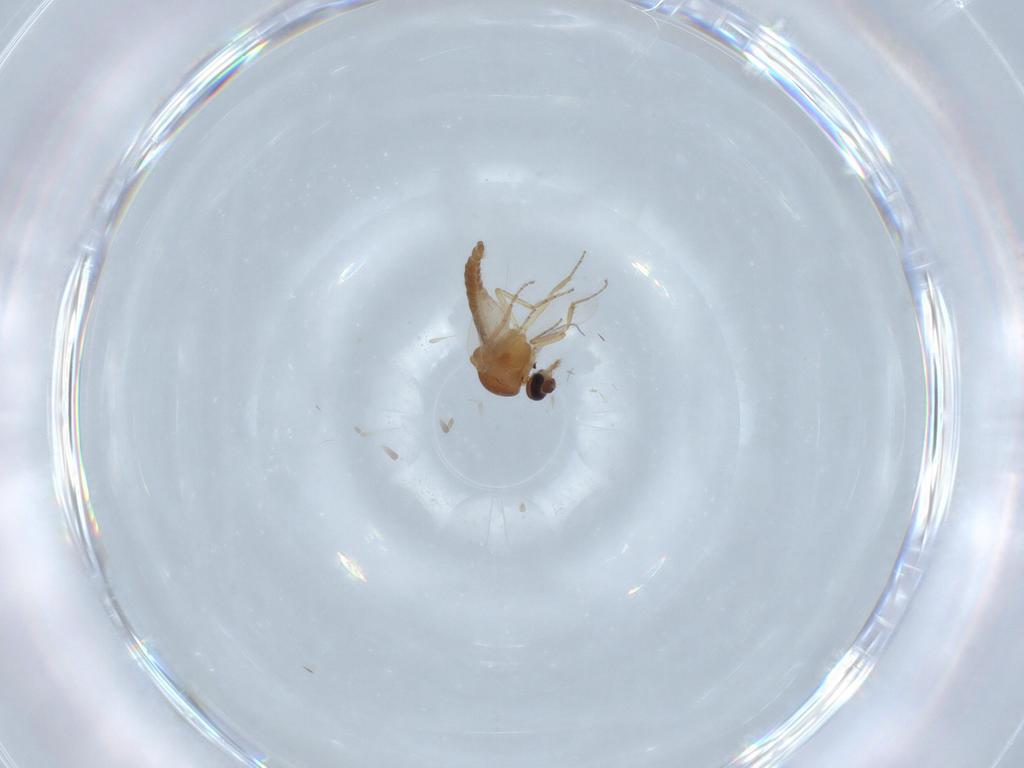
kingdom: Animalia
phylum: Arthropoda
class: Insecta
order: Diptera
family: Ceratopogonidae
